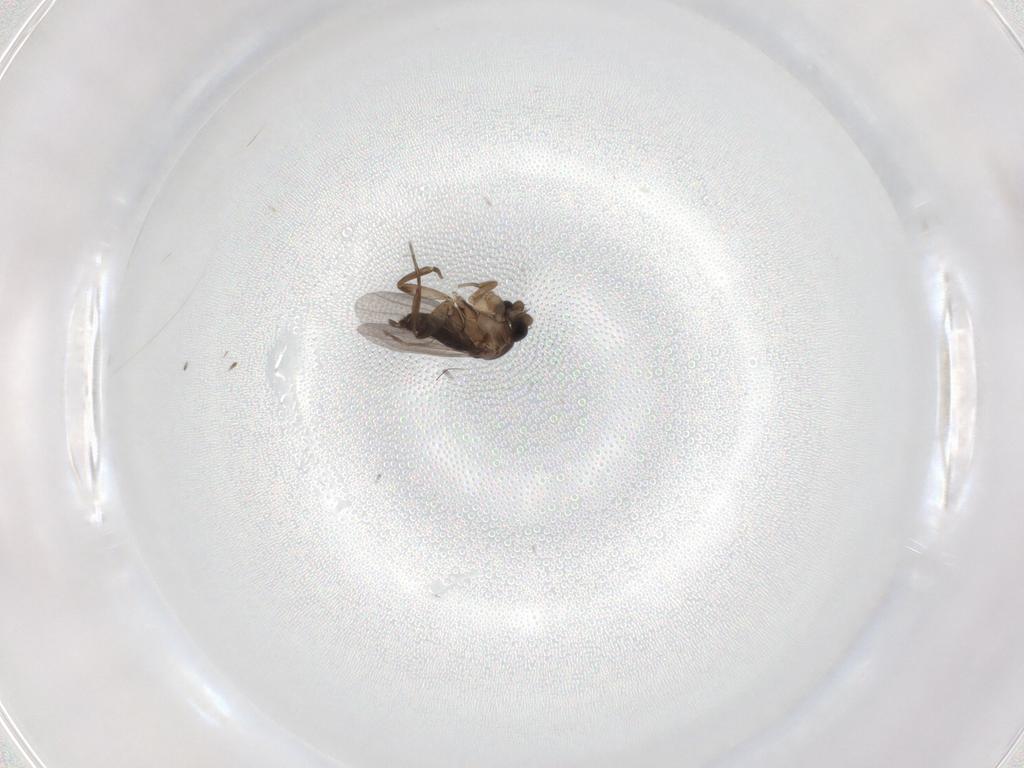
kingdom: Animalia
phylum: Arthropoda
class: Insecta
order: Diptera
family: Phoridae
